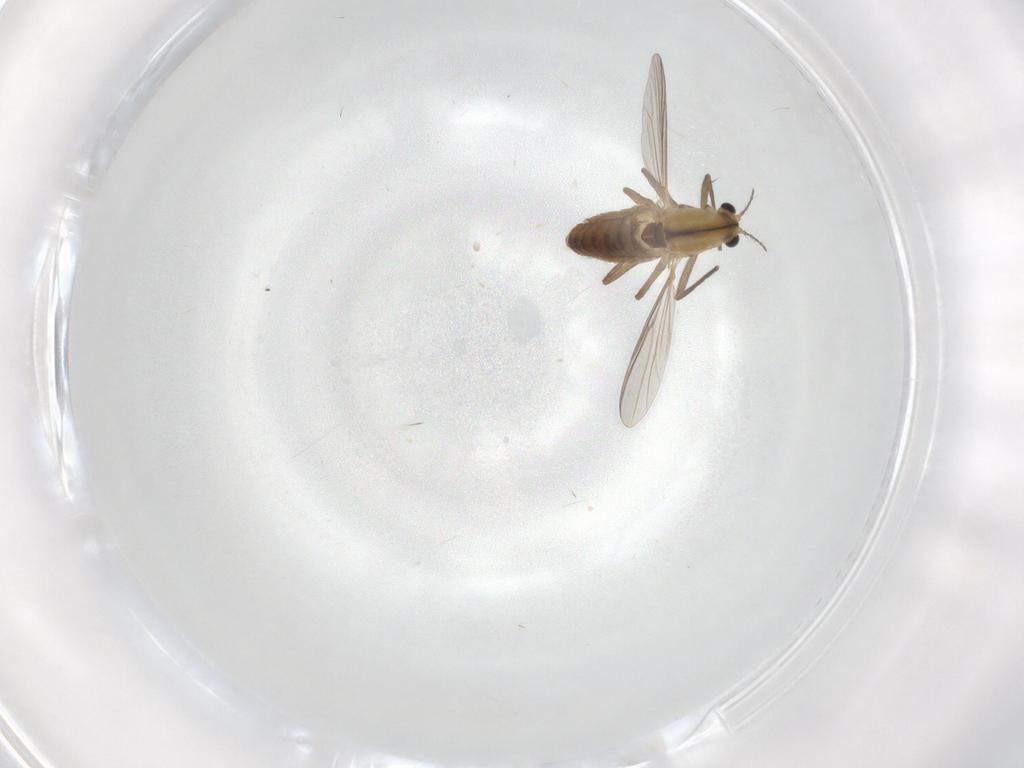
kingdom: Animalia
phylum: Arthropoda
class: Insecta
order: Diptera
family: Chironomidae
